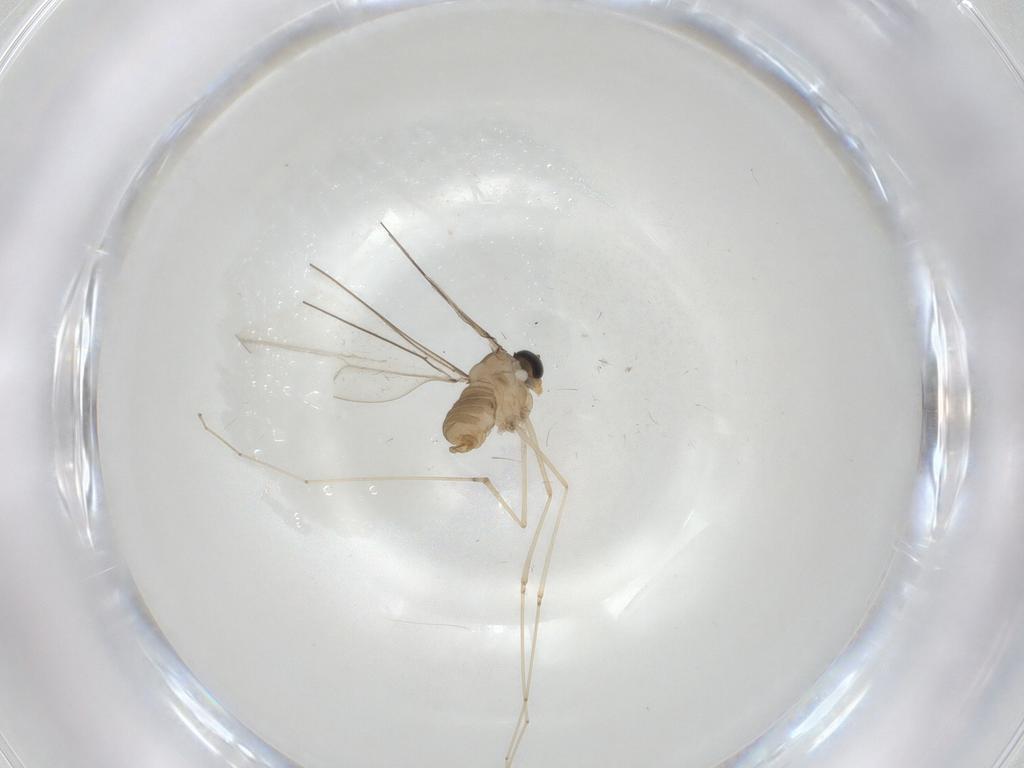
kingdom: Animalia
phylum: Arthropoda
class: Insecta
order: Diptera
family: Cecidomyiidae
